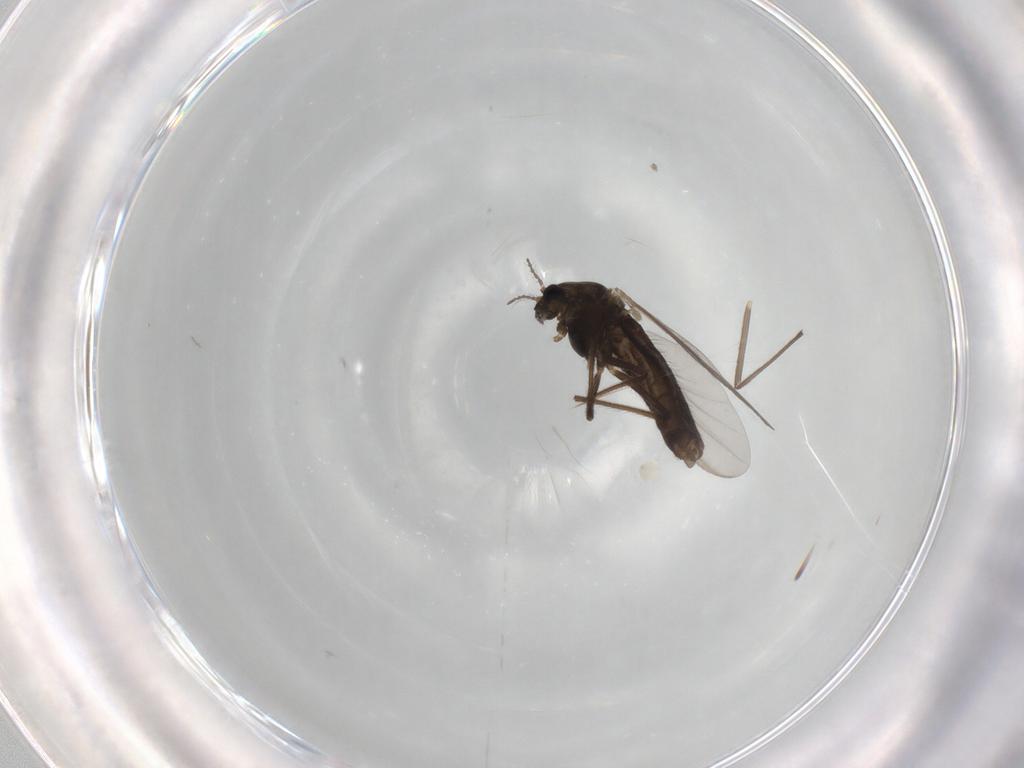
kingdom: Animalia
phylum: Arthropoda
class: Insecta
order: Diptera
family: Chironomidae
